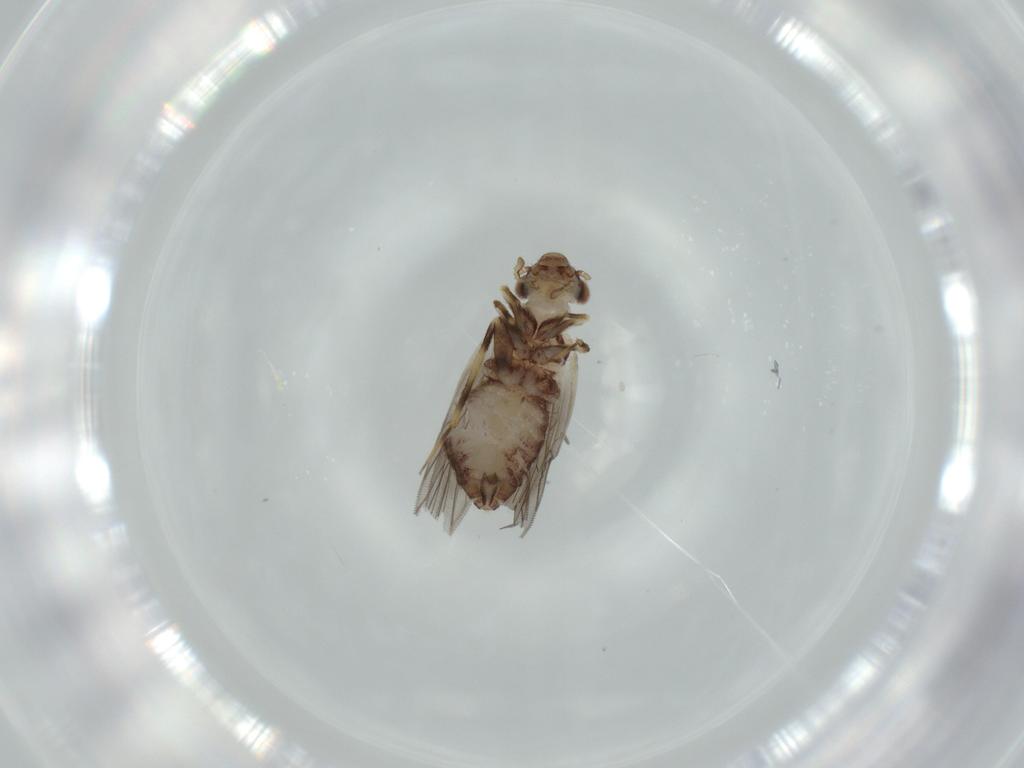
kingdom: Animalia
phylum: Arthropoda
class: Insecta
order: Psocodea
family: Lepidopsocidae
